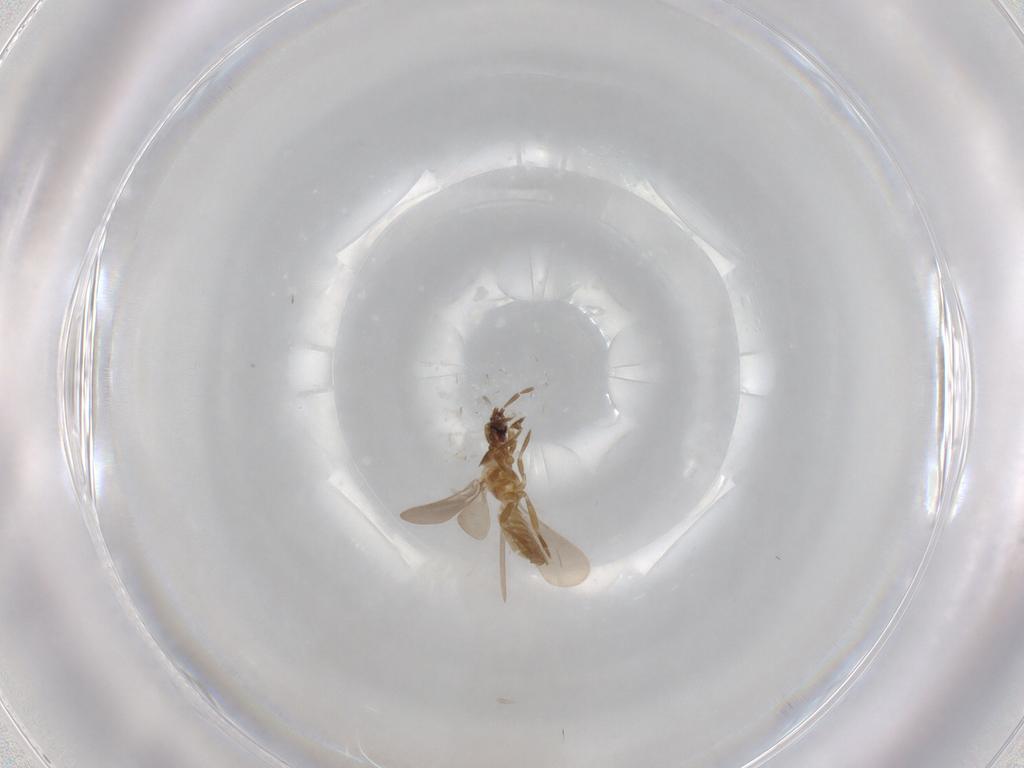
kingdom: Animalia
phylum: Arthropoda
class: Insecta
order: Hemiptera
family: Enicocephalidae
